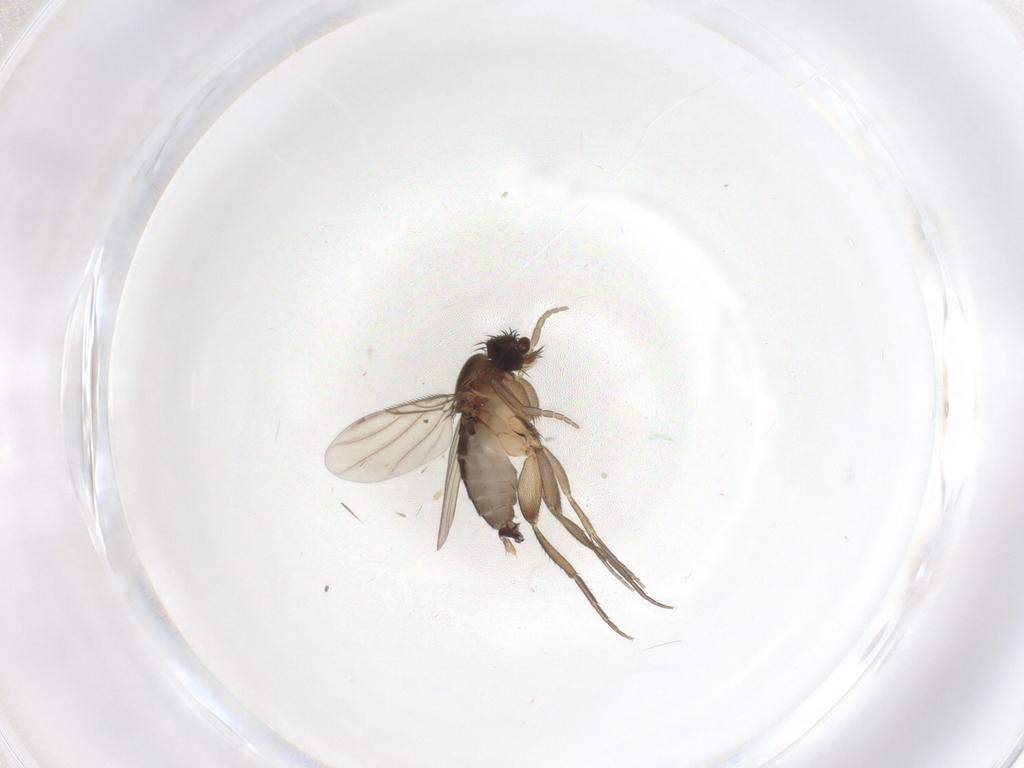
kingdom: Animalia
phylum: Arthropoda
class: Insecta
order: Diptera
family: Phoridae
